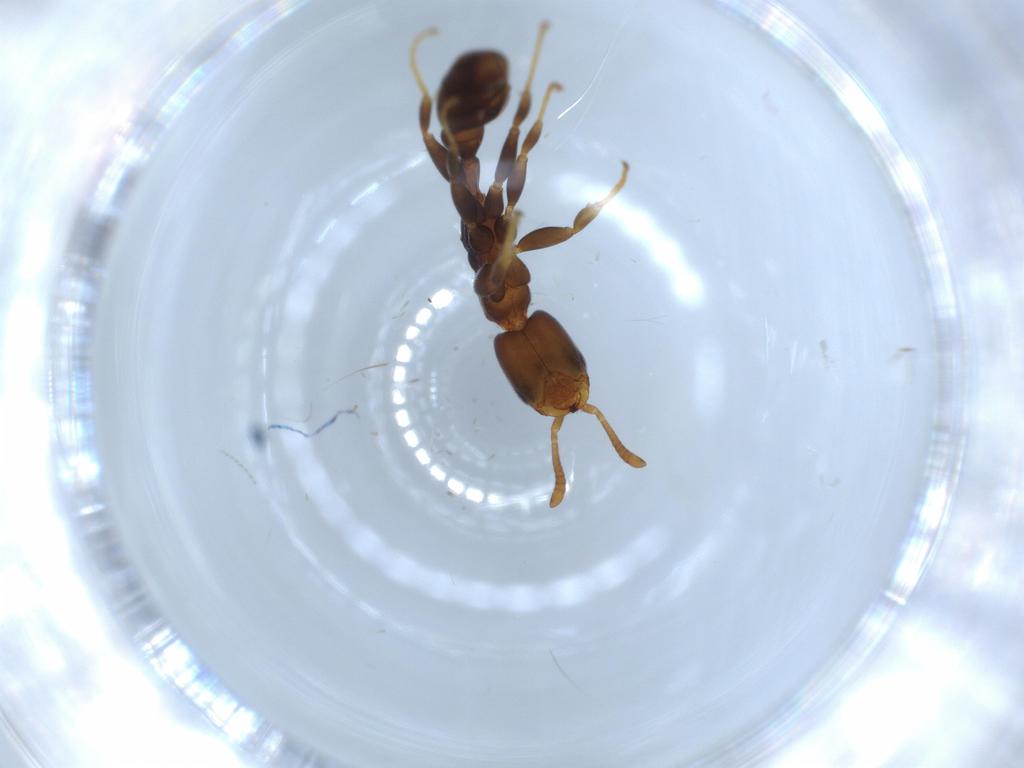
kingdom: Animalia
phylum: Arthropoda
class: Insecta
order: Hymenoptera
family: Formicidae
